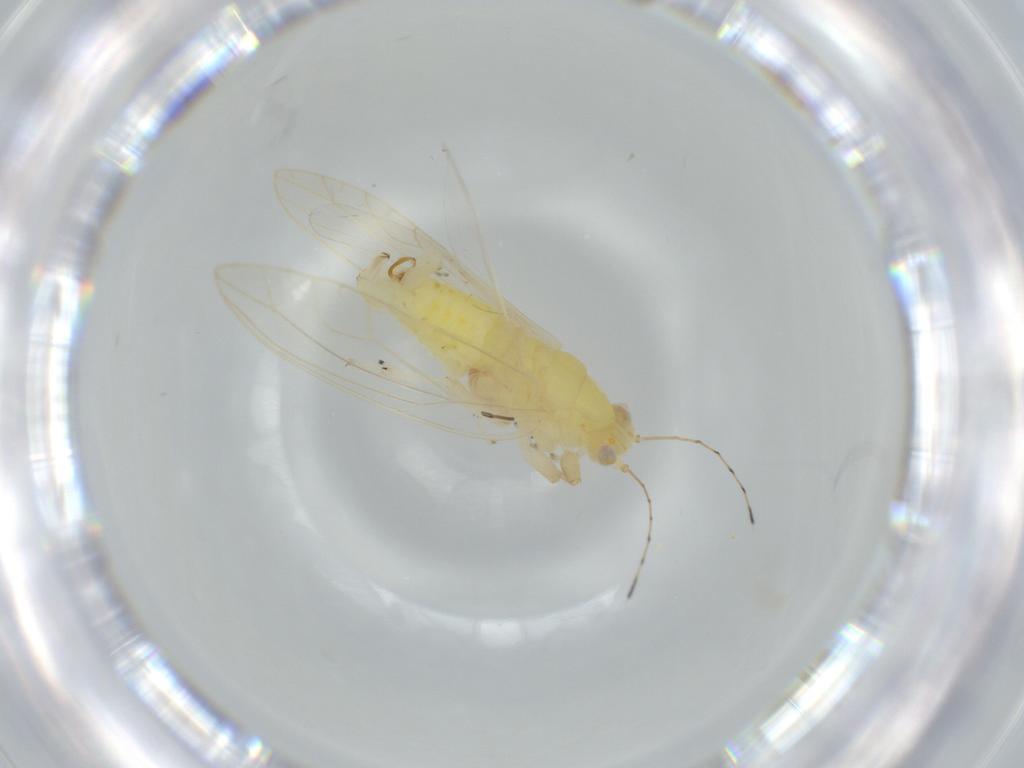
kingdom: Animalia
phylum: Arthropoda
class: Insecta
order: Hemiptera
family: Triozidae
